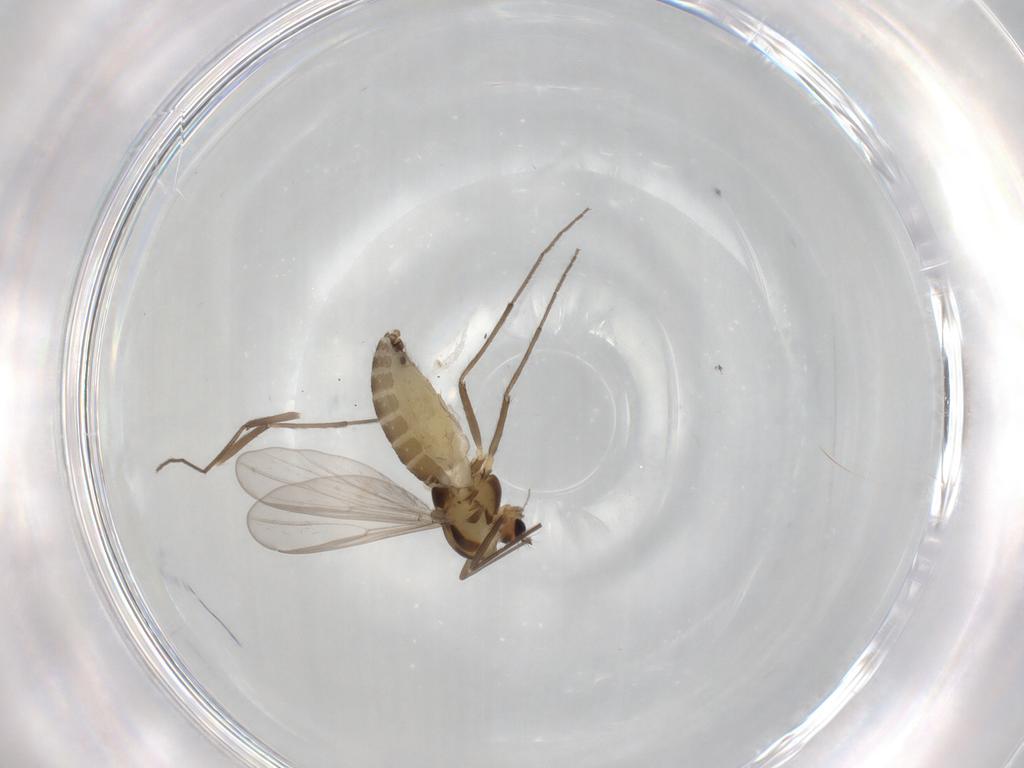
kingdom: Animalia
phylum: Arthropoda
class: Insecta
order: Diptera
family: Chironomidae
